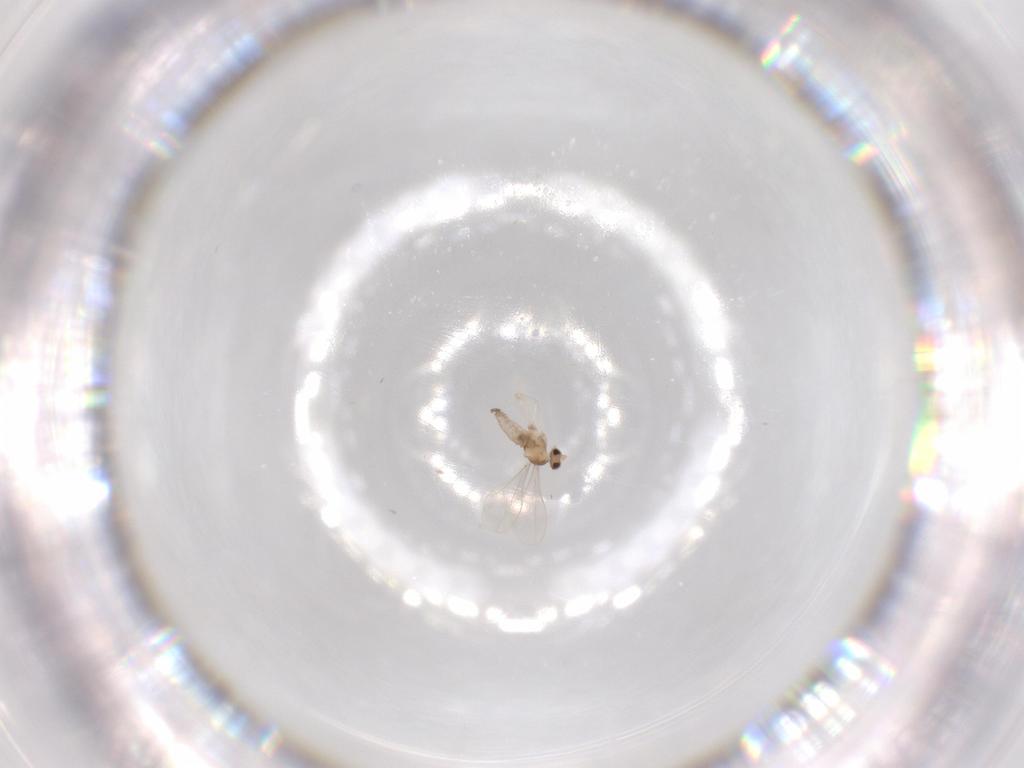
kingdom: Animalia
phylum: Arthropoda
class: Insecta
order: Diptera
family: Cecidomyiidae
